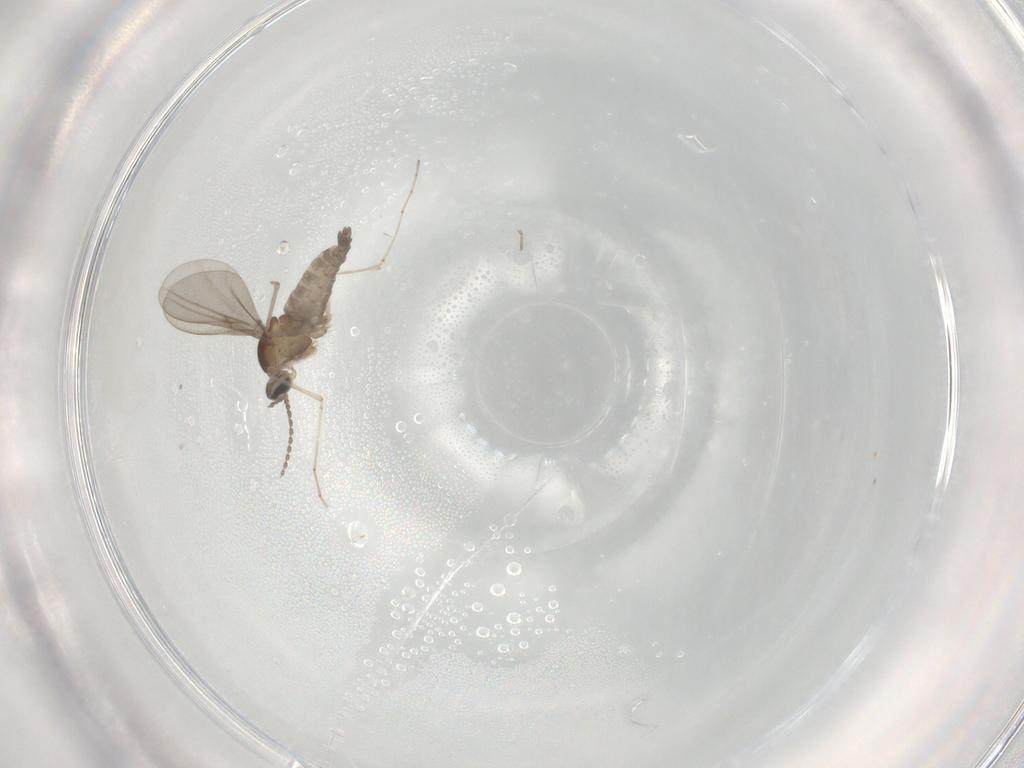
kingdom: Animalia
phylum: Arthropoda
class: Insecta
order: Diptera
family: Cecidomyiidae
